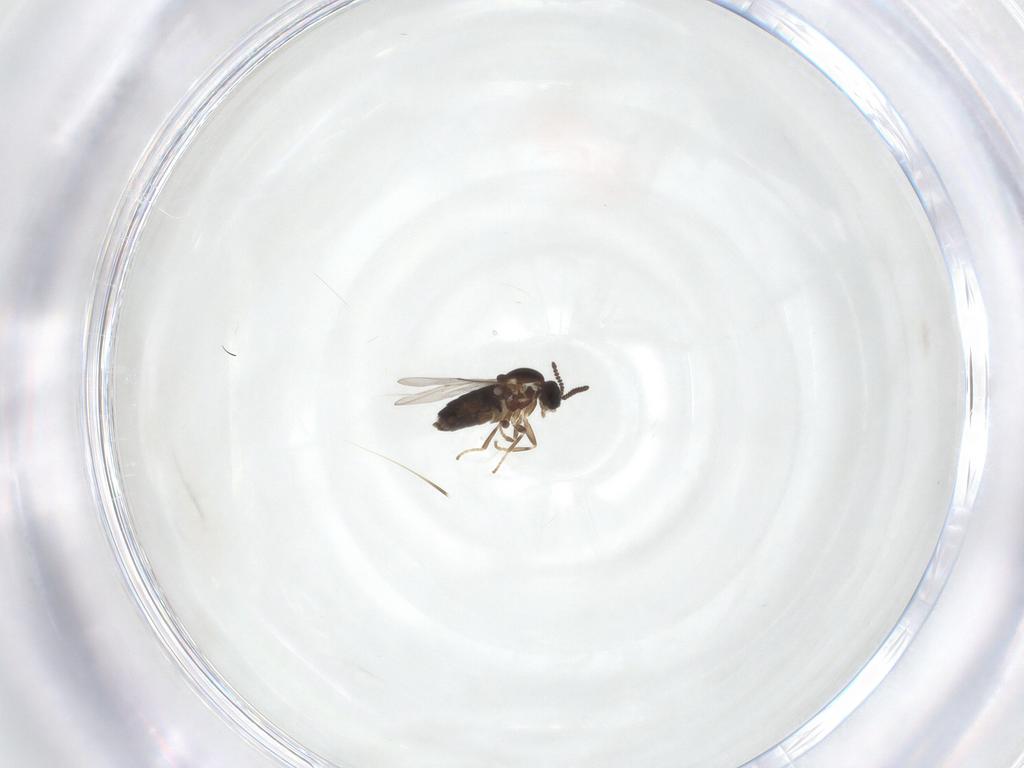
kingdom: Animalia
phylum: Arthropoda
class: Insecta
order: Diptera
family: Scatopsidae
